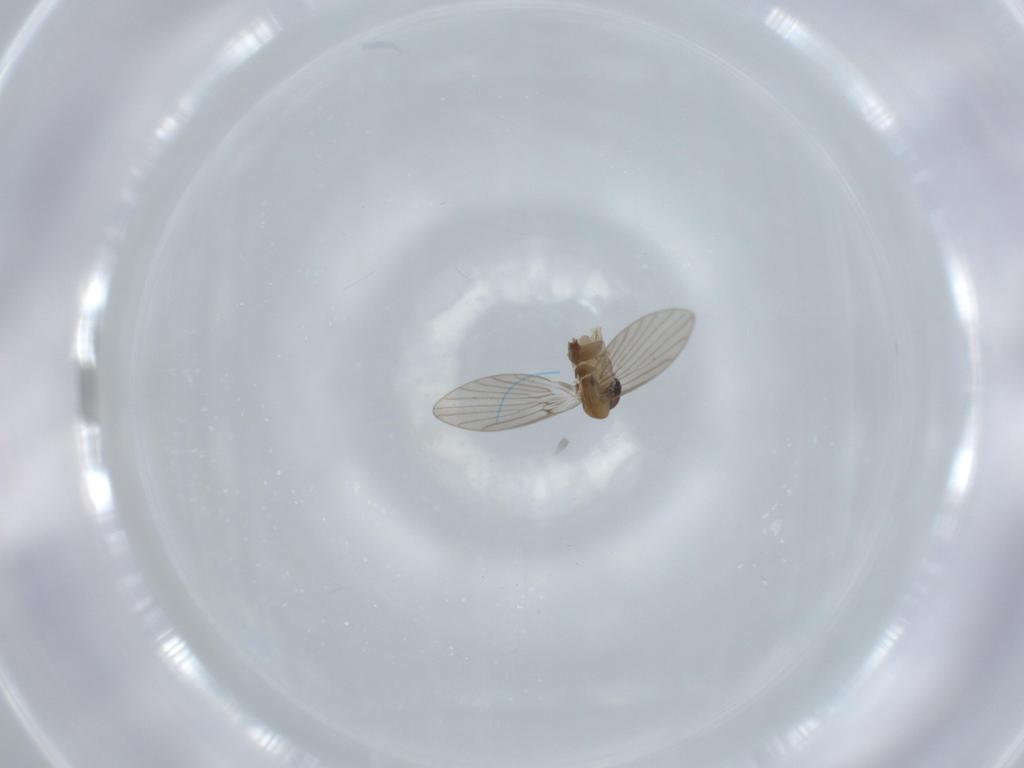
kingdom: Animalia
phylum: Arthropoda
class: Insecta
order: Diptera
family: Psychodidae
